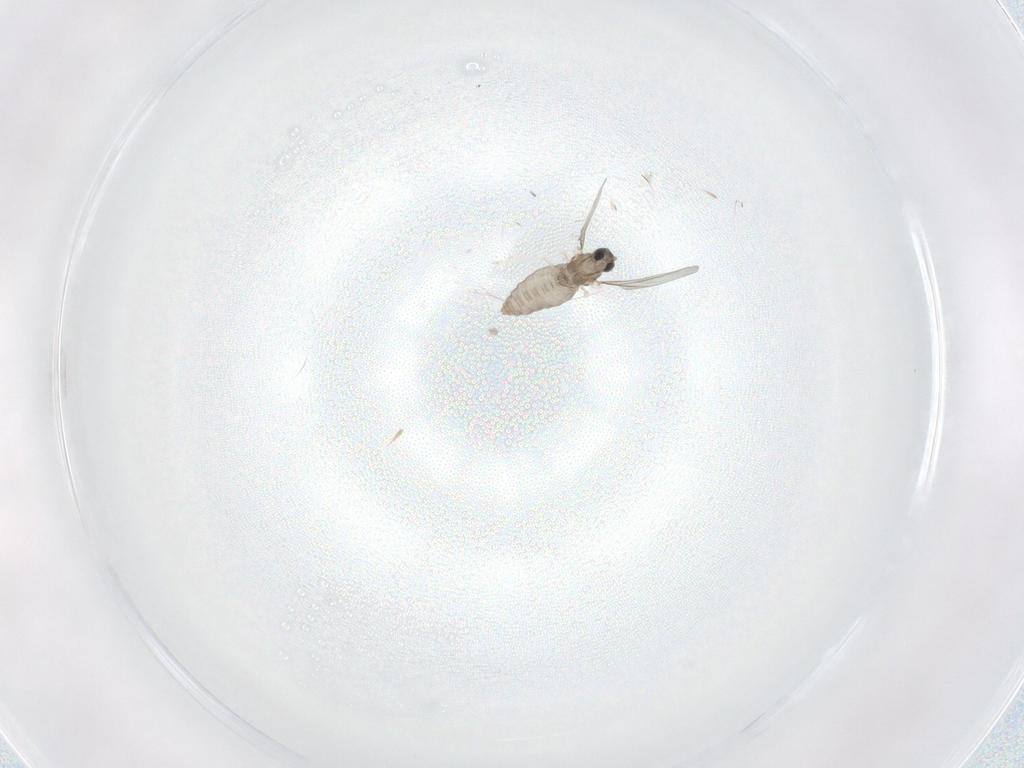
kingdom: Animalia
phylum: Arthropoda
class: Insecta
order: Diptera
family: Cecidomyiidae
